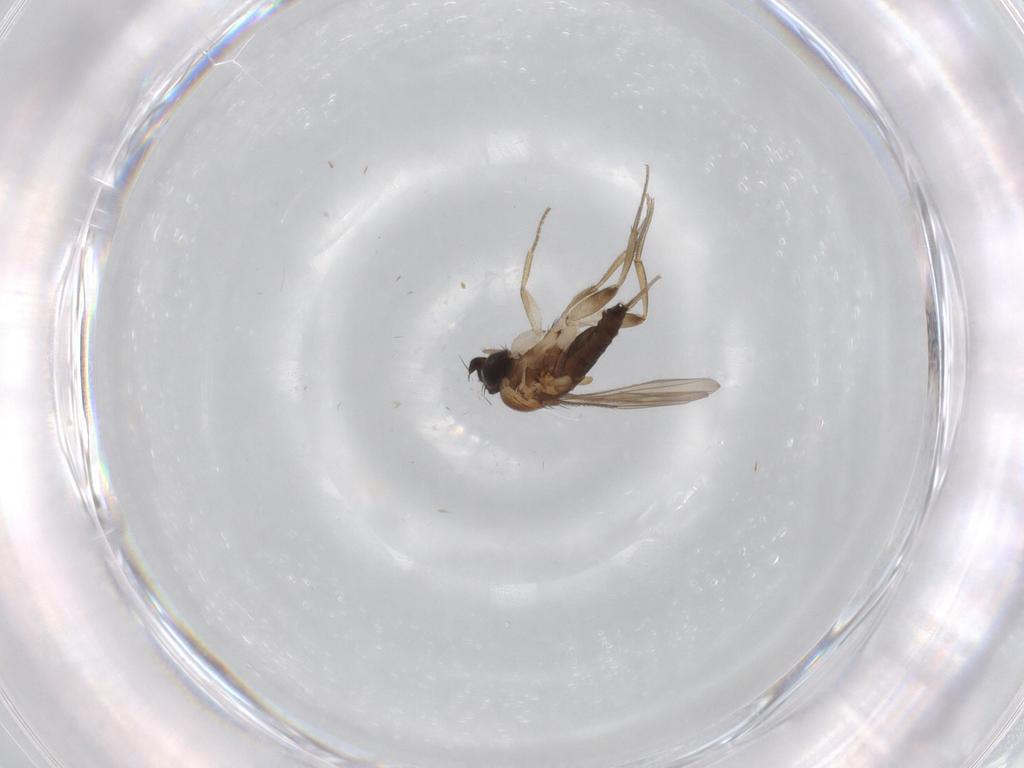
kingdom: Animalia
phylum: Arthropoda
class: Insecta
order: Diptera
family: Phoridae
